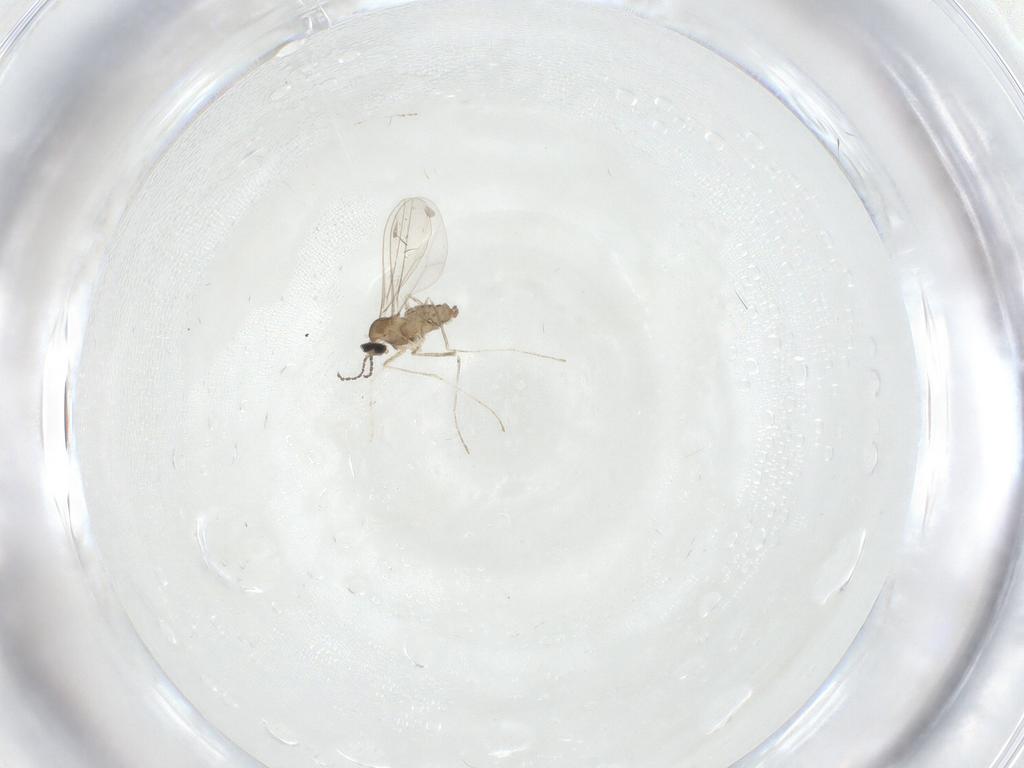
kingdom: Animalia
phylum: Arthropoda
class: Insecta
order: Diptera
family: Cecidomyiidae
